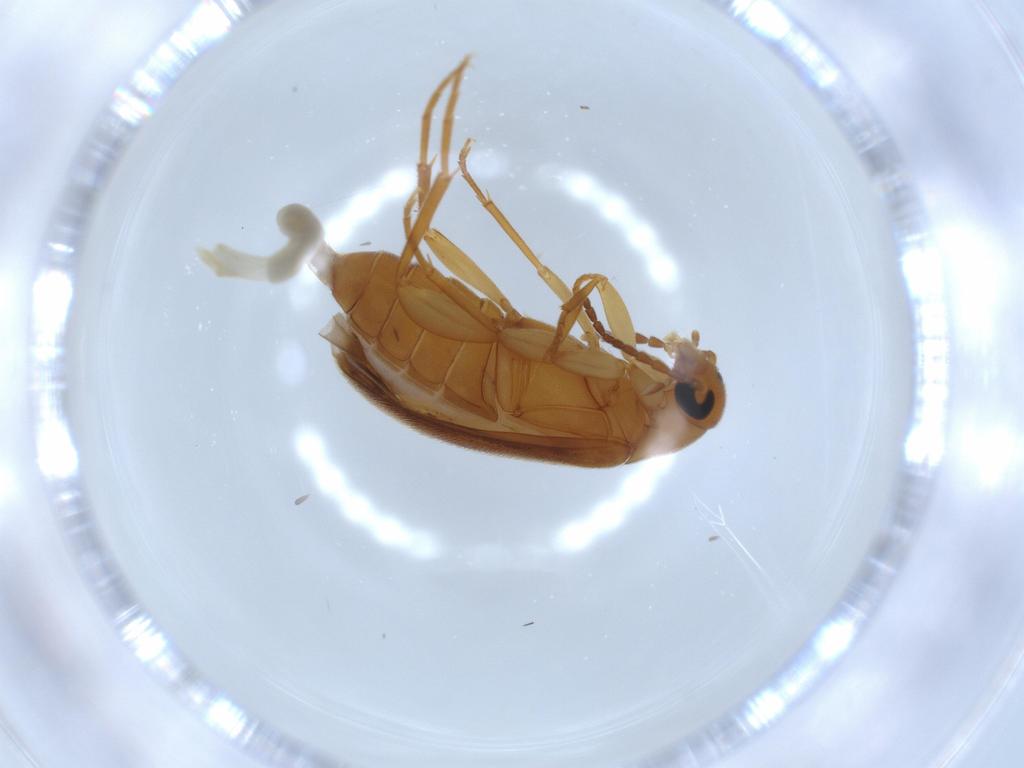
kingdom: Animalia
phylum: Arthropoda
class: Insecta
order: Coleoptera
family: Scraptiidae
